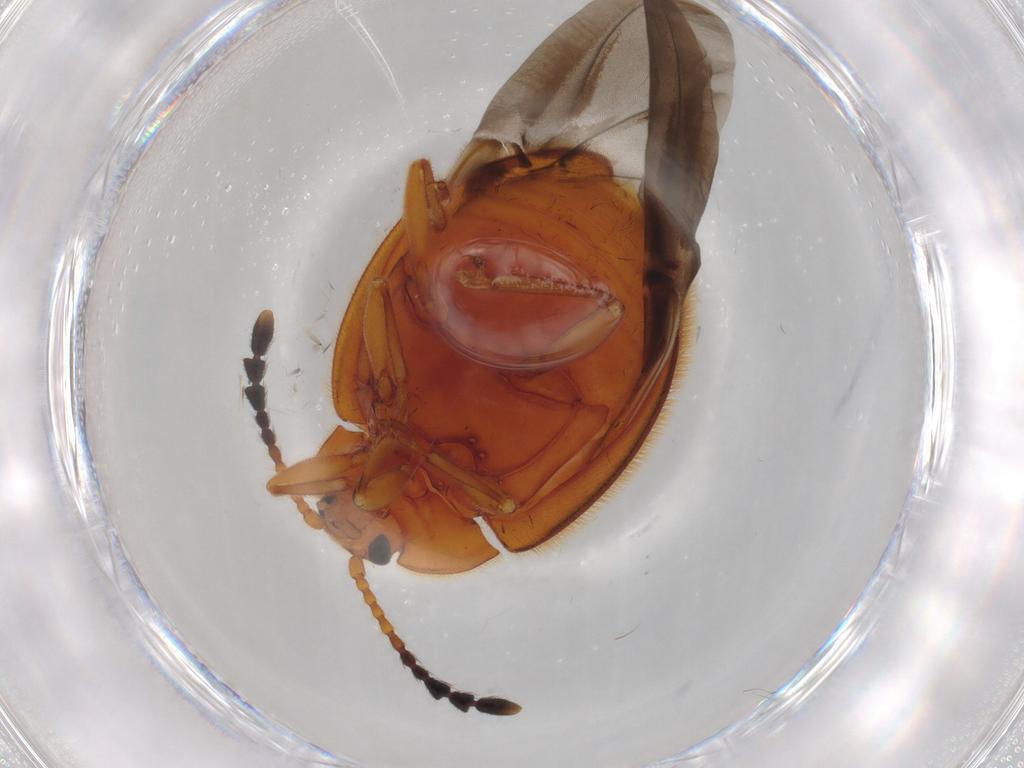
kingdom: Animalia
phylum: Arthropoda
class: Insecta
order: Coleoptera
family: Endomychidae
